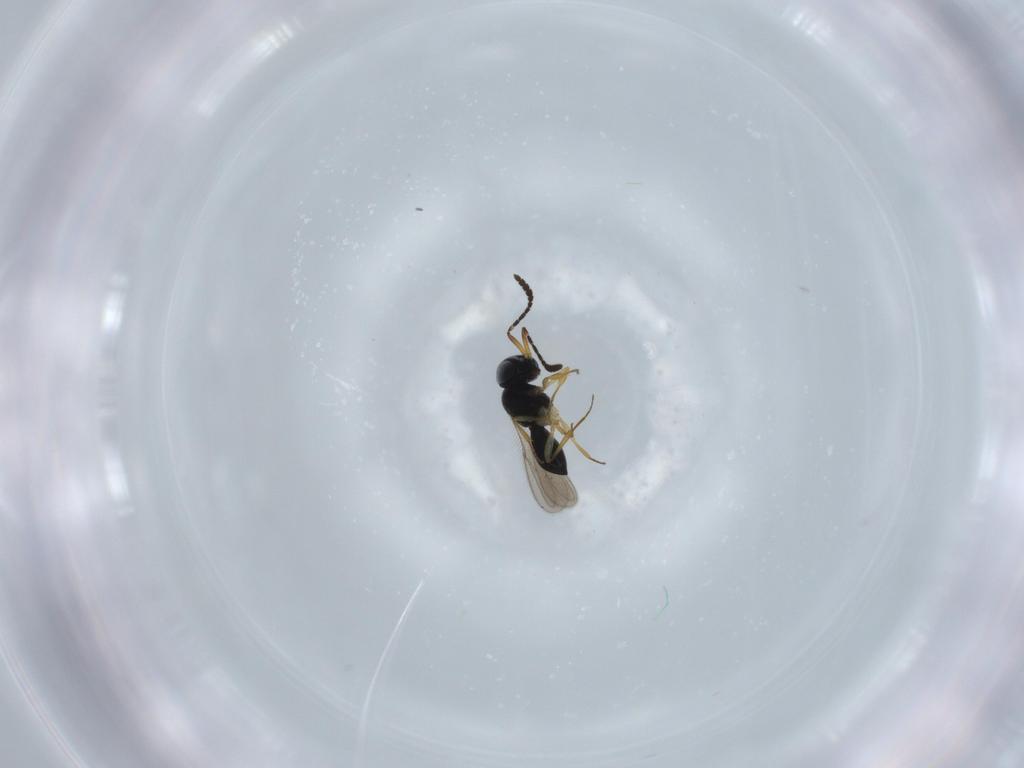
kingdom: Animalia
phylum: Arthropoda
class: Insecta
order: Hymenoptera
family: Scelionidae
